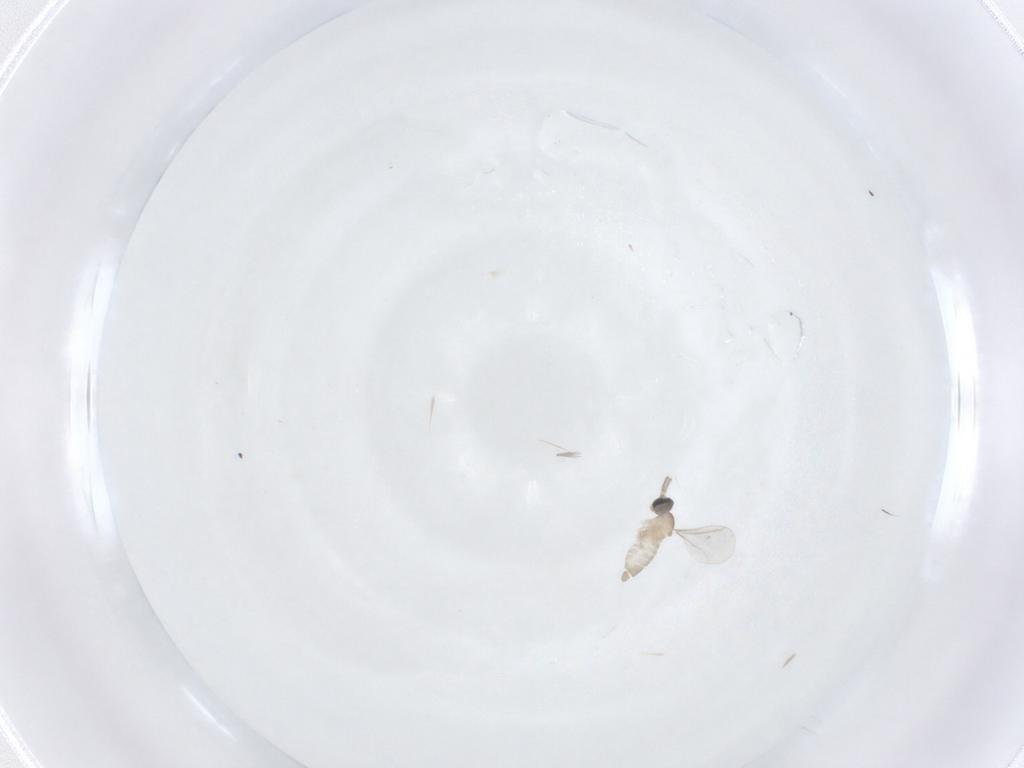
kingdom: Animalia
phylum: Arthropoda
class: Insecta
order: Diptera
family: Cecidomyiidae
